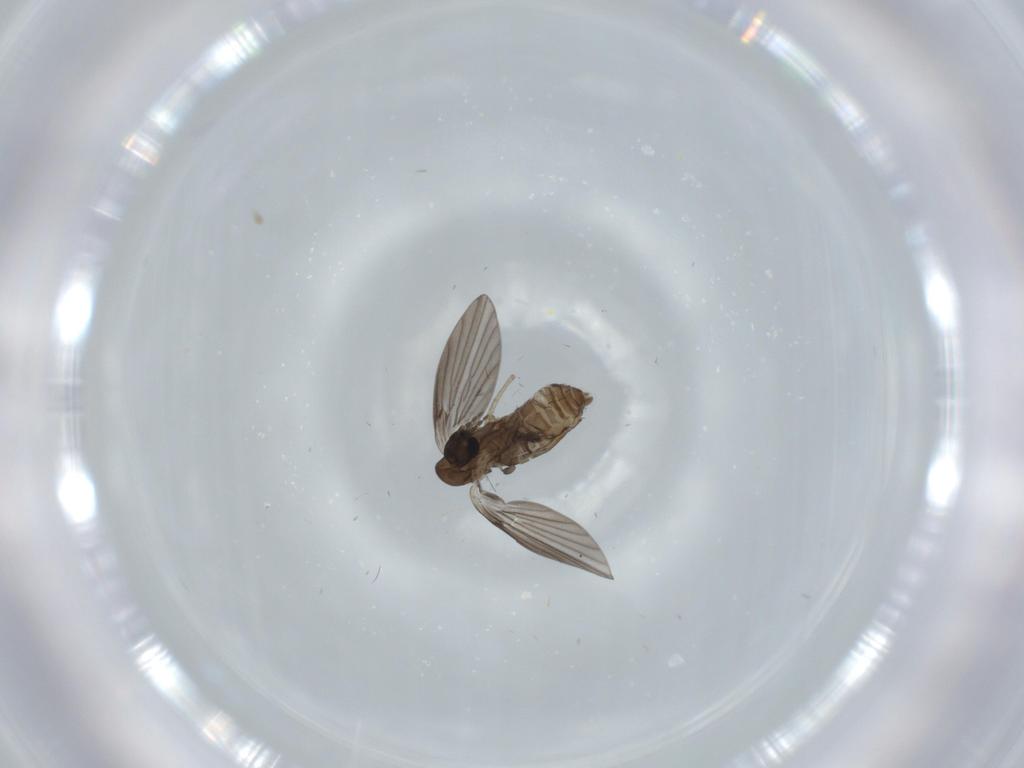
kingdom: Animalia
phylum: Arthropoda
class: Insecta
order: Diptera
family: Psychodidae
